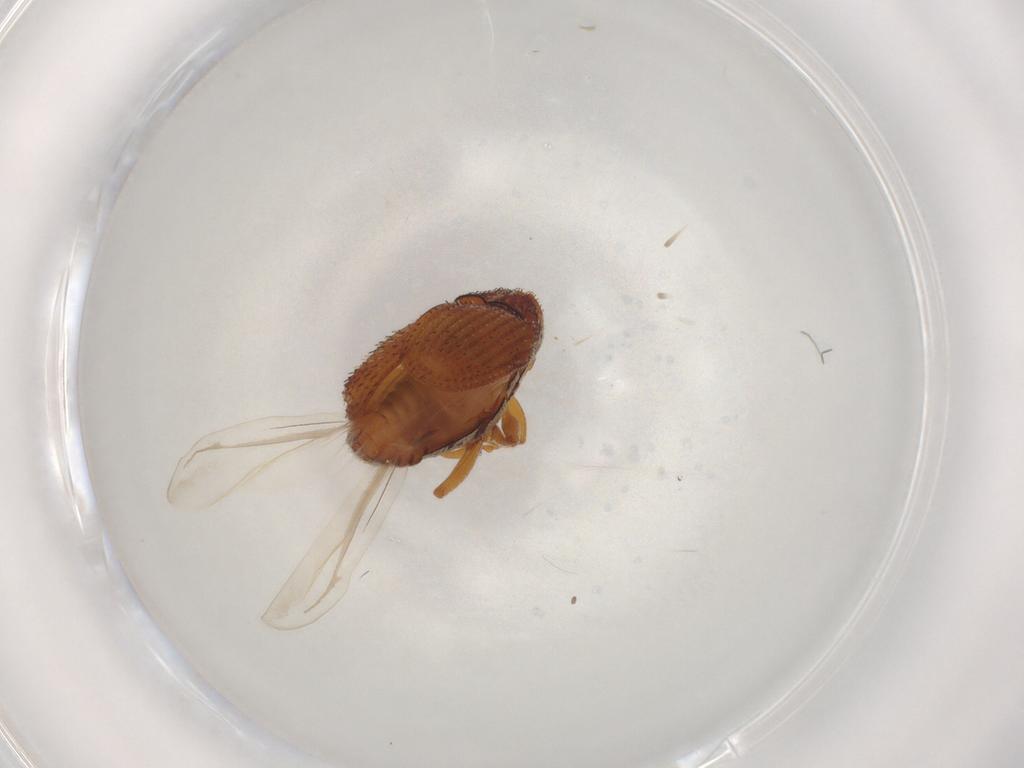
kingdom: Animalia
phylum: Arthropoda
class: Insecta
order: Coleoptera
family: Curculionidae
